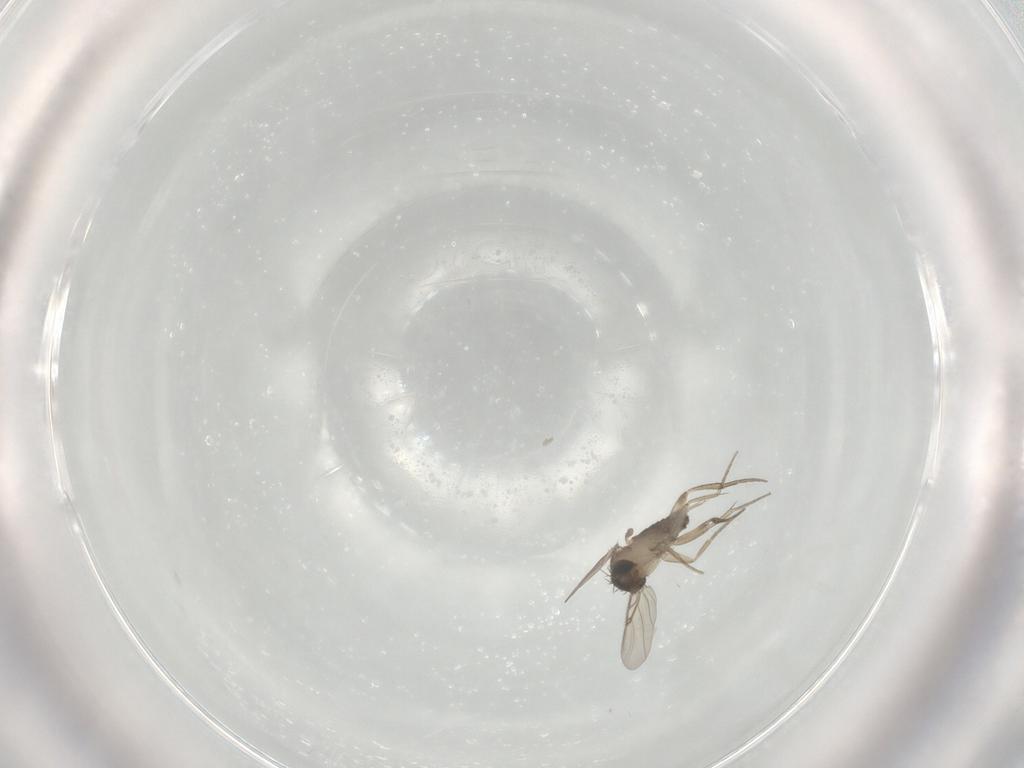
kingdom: Animalia
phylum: Arthropoda
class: Insecta
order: Diptera
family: Phoridae
